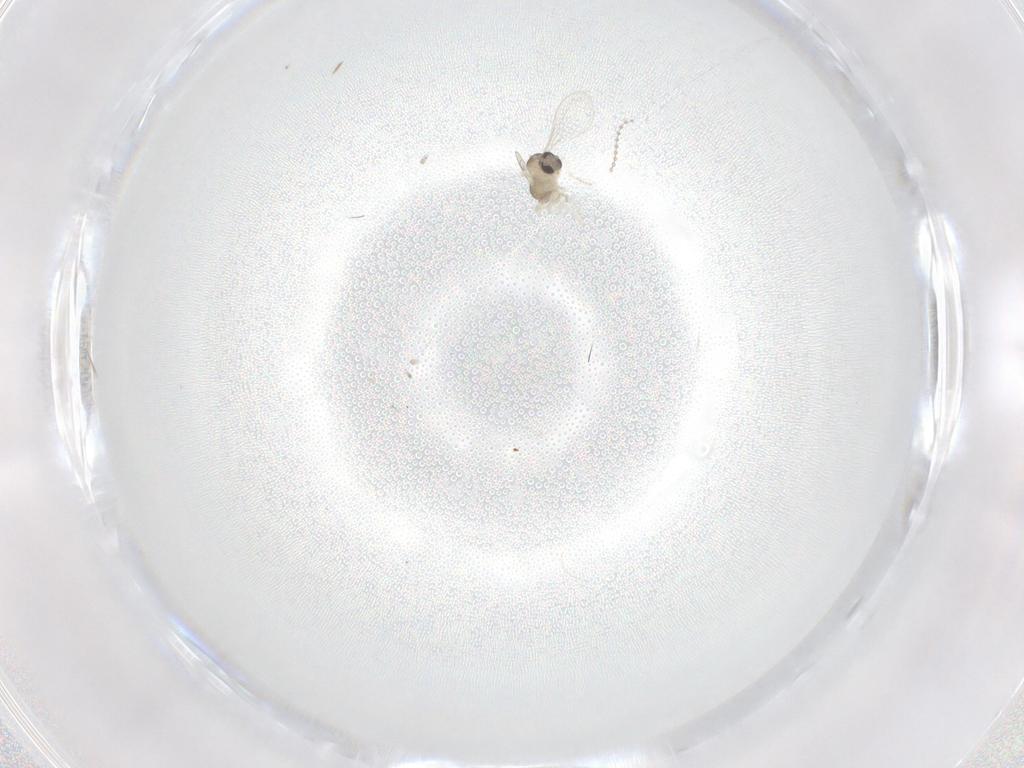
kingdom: Animalia
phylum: Arthropoda
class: Insecta
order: Diptera
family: Cecidomyiidae
